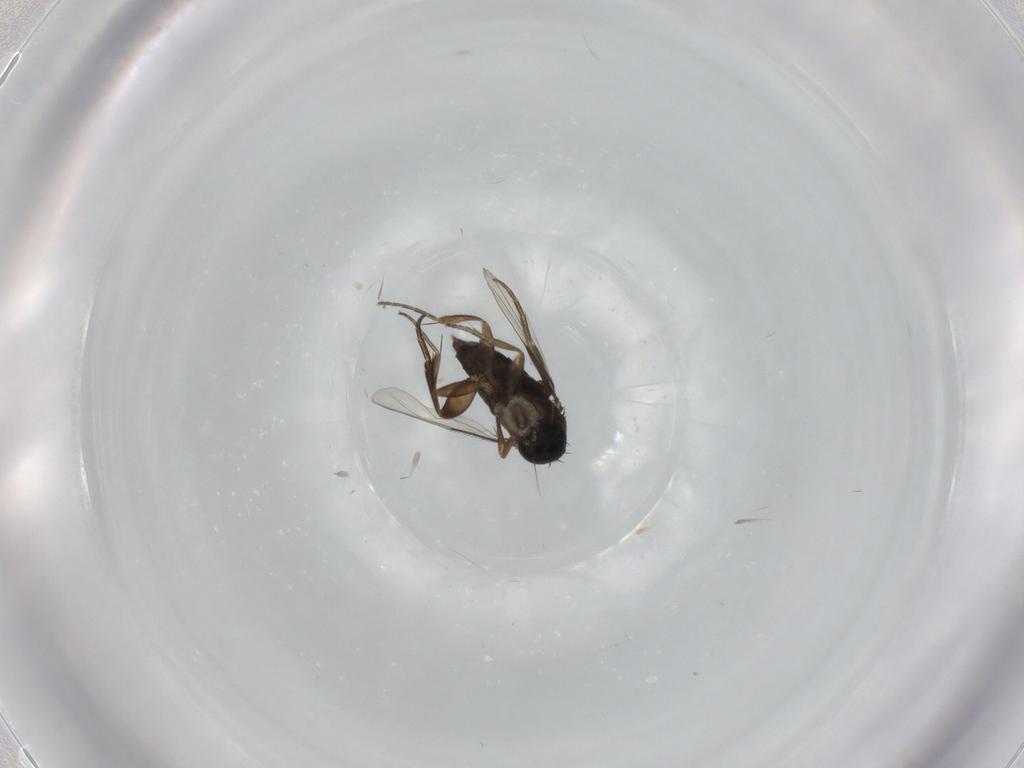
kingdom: Animalia
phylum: Arthropoda
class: Insecta
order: Diptera
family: Phoridae
